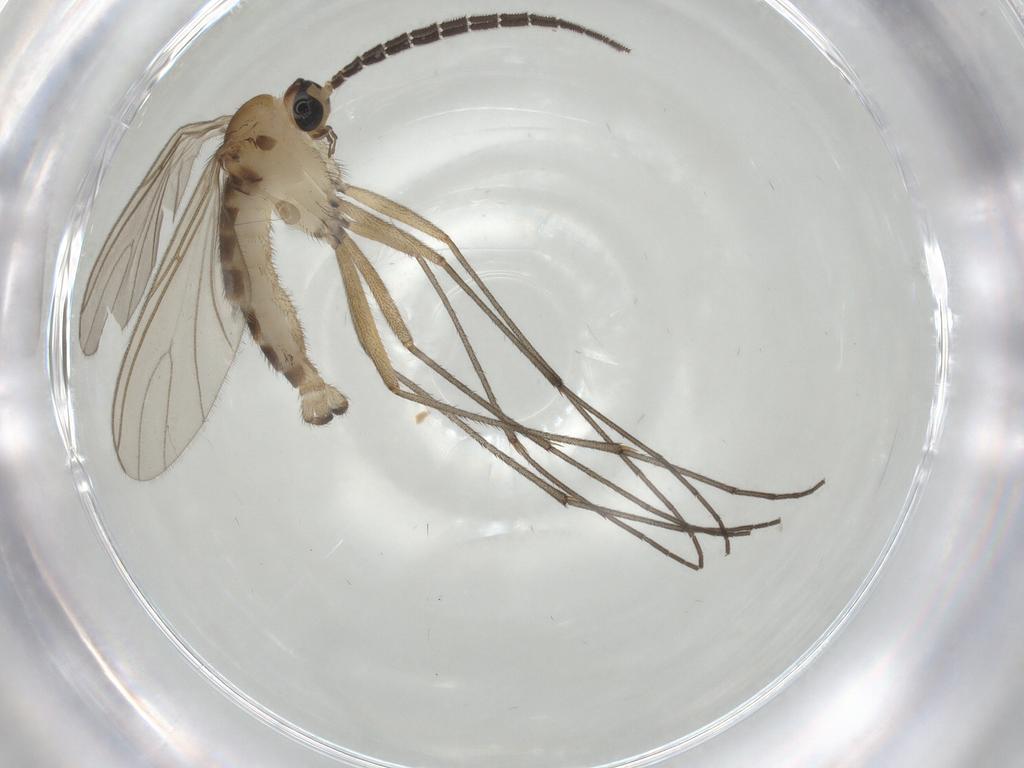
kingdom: Animalia
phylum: Arthropoda
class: Insecta
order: Diptera
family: Sciaridae
